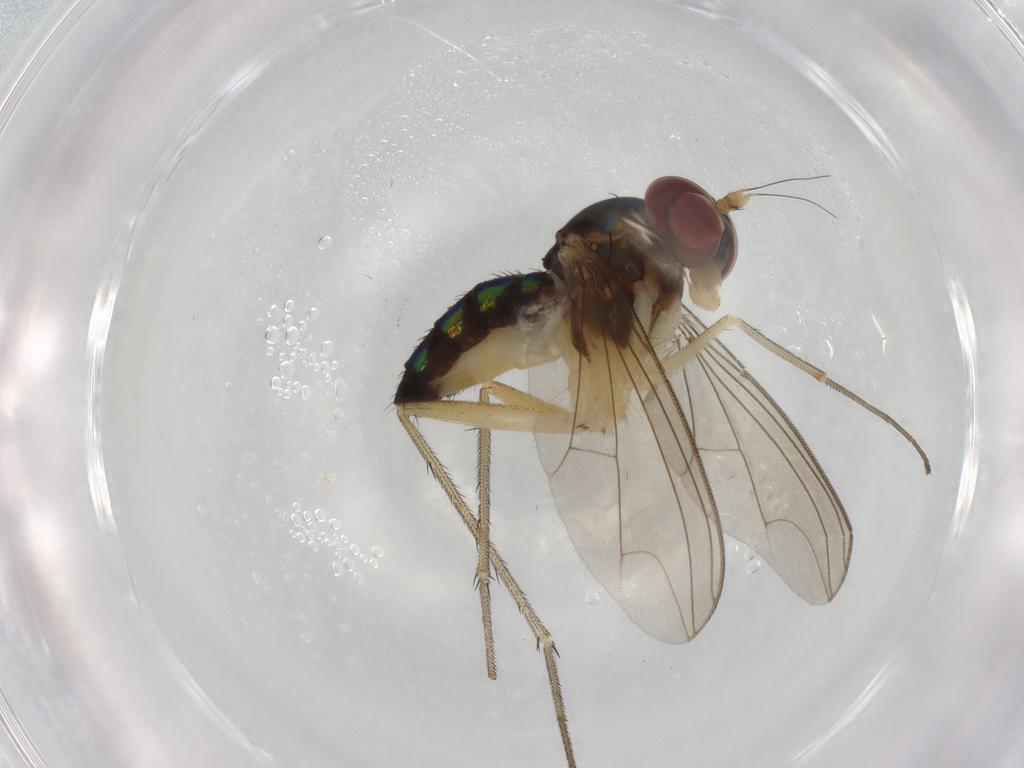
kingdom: Animalia
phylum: Arthropoda
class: Insecta
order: Diptera
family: Dolichopodidae
